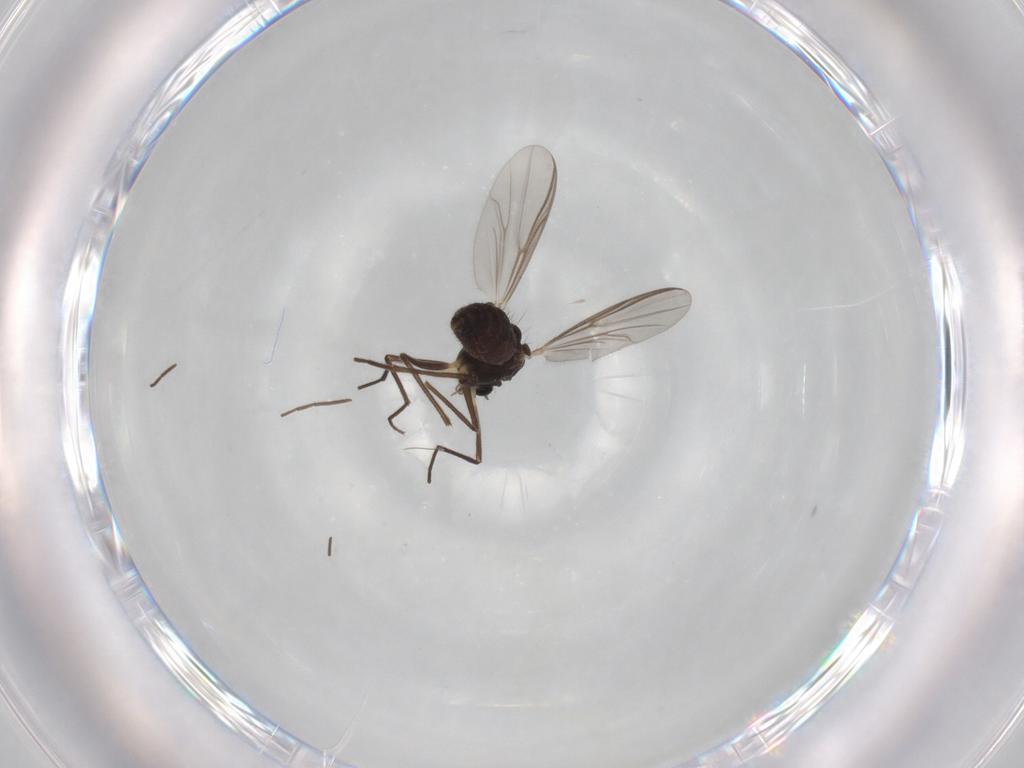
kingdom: Animalia
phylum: Arthropoda
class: Insecta
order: Diptera
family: Chironomidae
